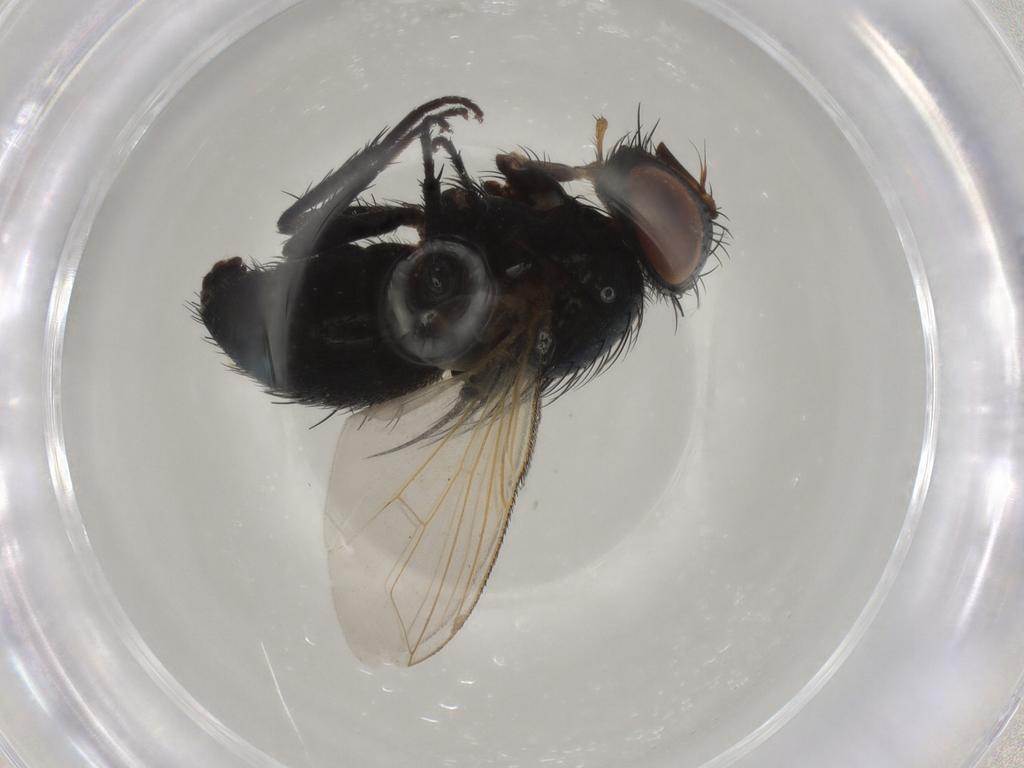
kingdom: Animalia
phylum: Arthropoda
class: Insecta
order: Diptera
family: Tachinidae
